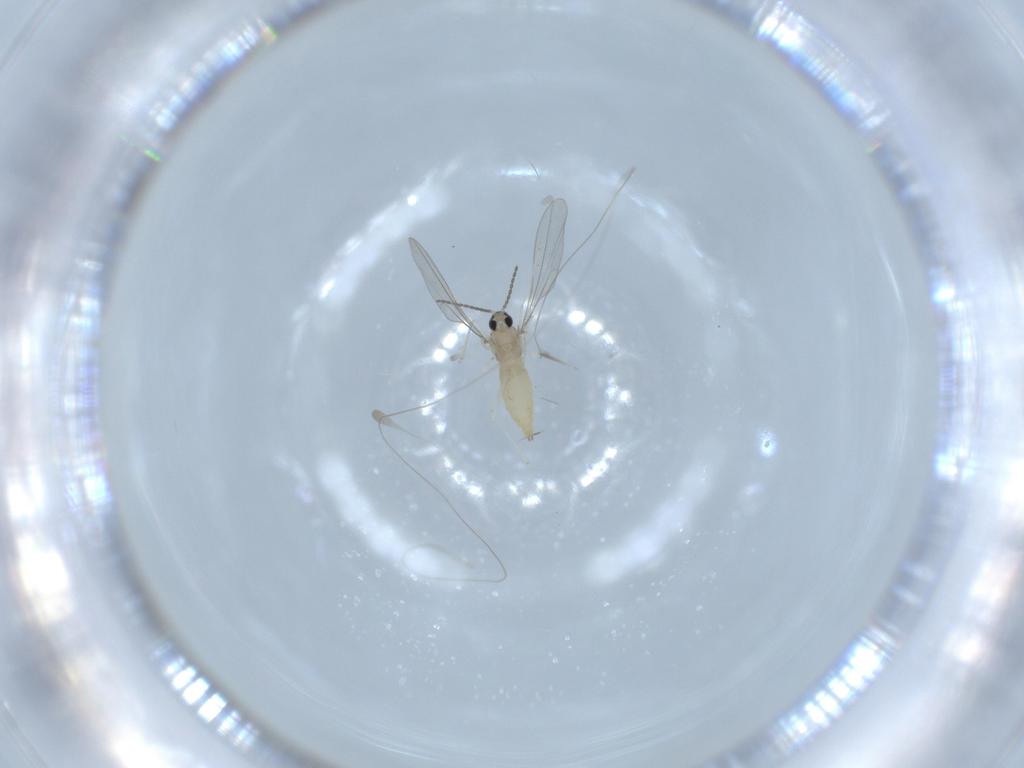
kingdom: Animalia
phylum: Arthropoda
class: Insecta
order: Diptera
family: Cecidomyiidae
